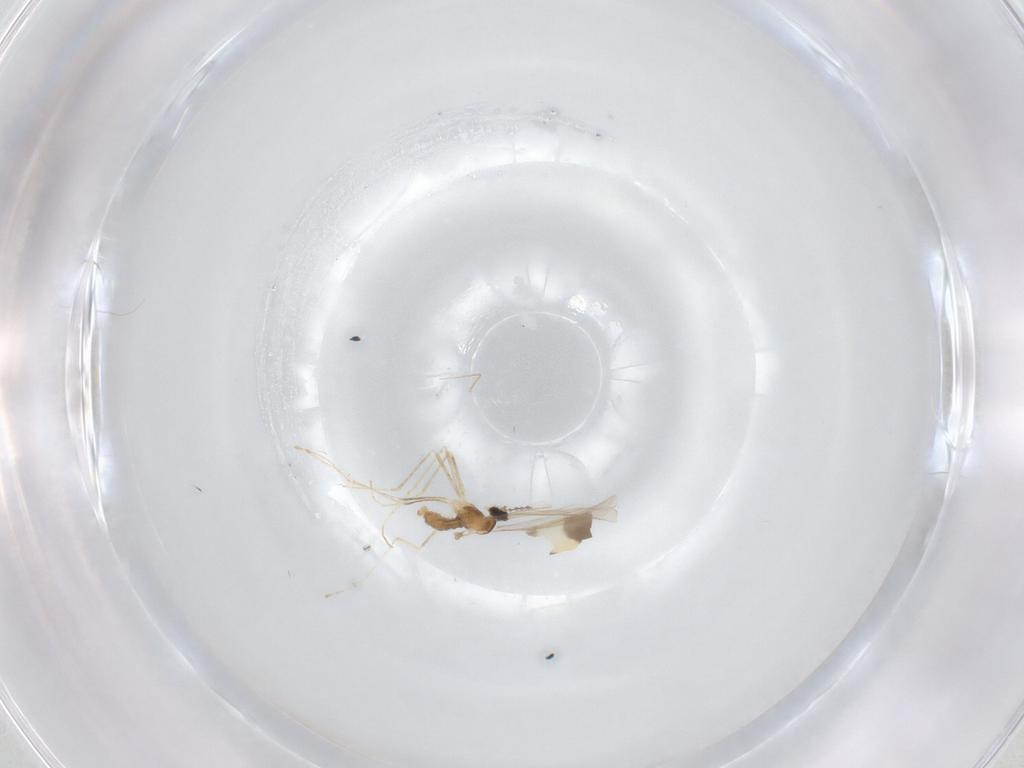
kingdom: Animalia
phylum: Arthropoda
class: Insecta
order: Diptera
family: Cecidomyiidae
